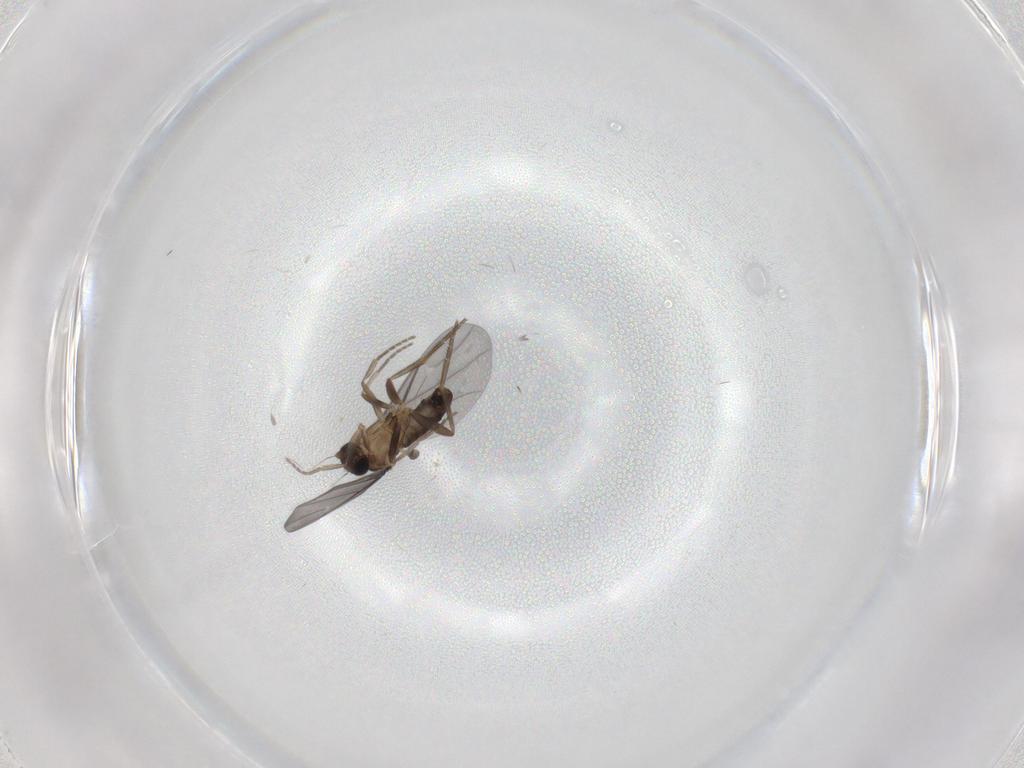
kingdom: Animalia
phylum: Arthropoda
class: Insecta
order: Diptera
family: Phoridae
